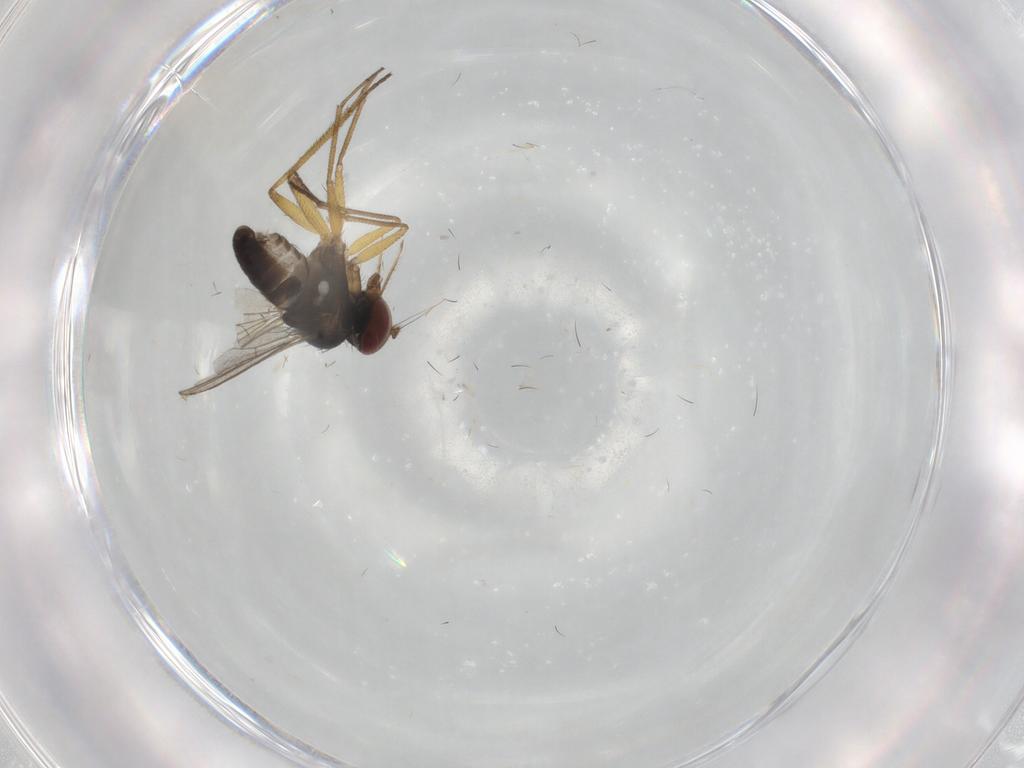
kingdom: Animalia
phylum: Arthropoda
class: Insecta
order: Diptera
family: Dolichopodidae
